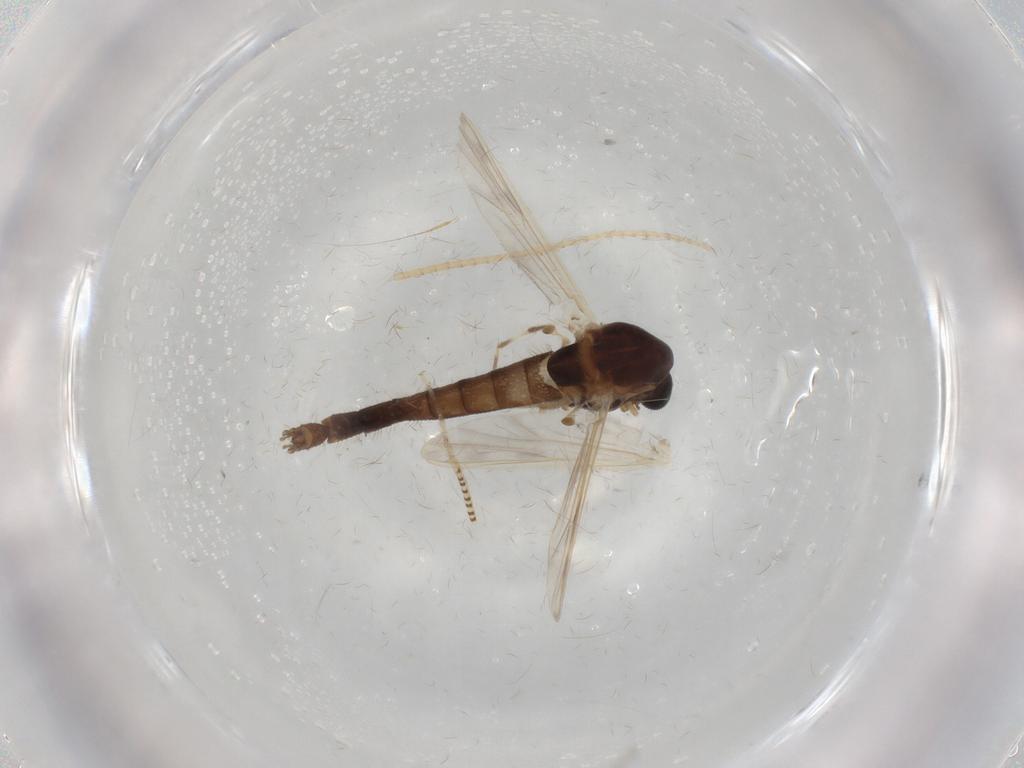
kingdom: Animalia
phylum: Arthropoda
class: Insecta
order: Diptera
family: Chironomidae
